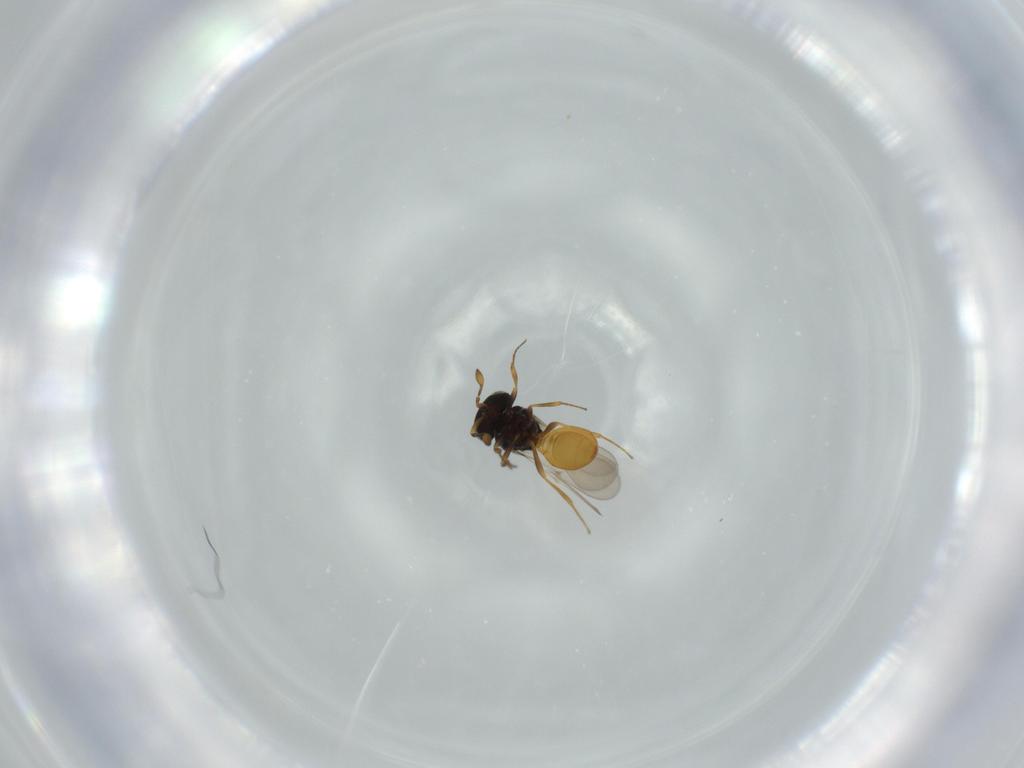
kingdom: Animalia
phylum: Arthropoda
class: Insecta
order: Hymenoptera
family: Scelionidae
